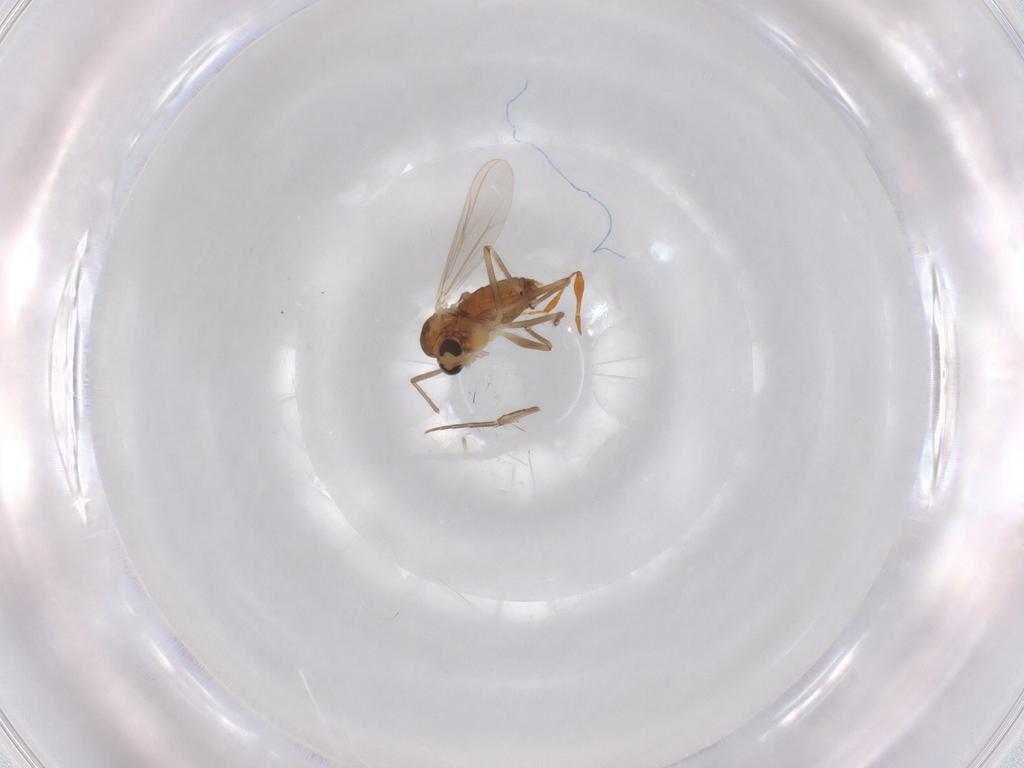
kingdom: Animalia
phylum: Arthropoda
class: Insecta
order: Diptera
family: Chironomidae
